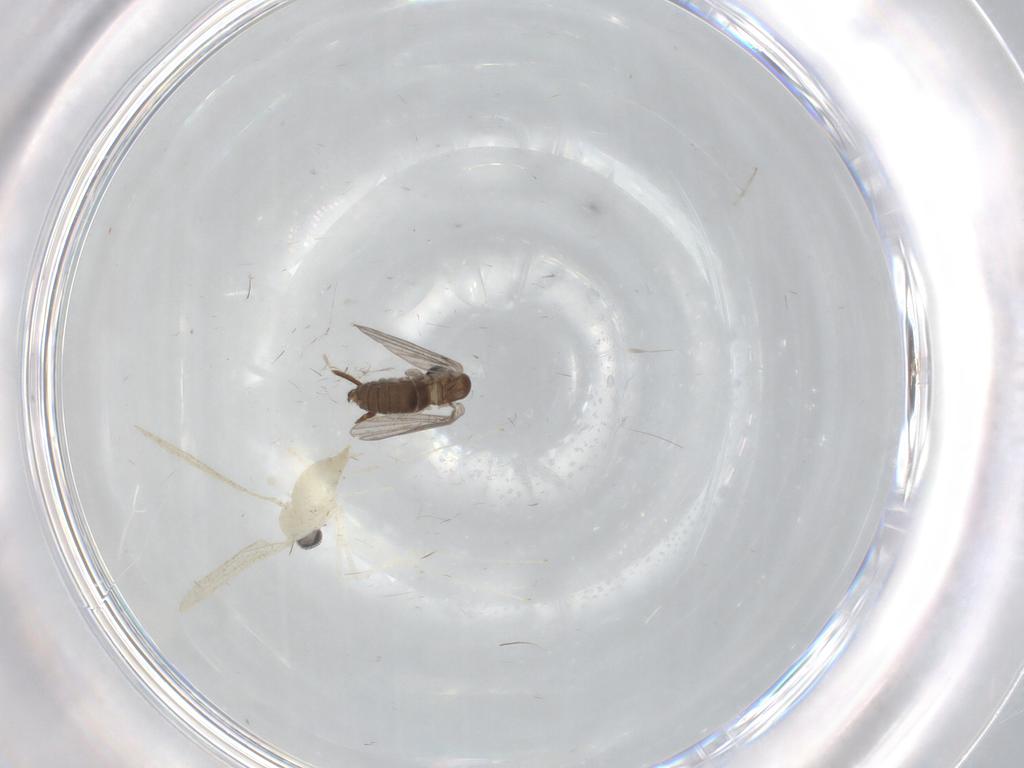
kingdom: Animalia
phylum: Arthropoda
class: Insecta
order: Diptera
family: Cecidomyiidae
